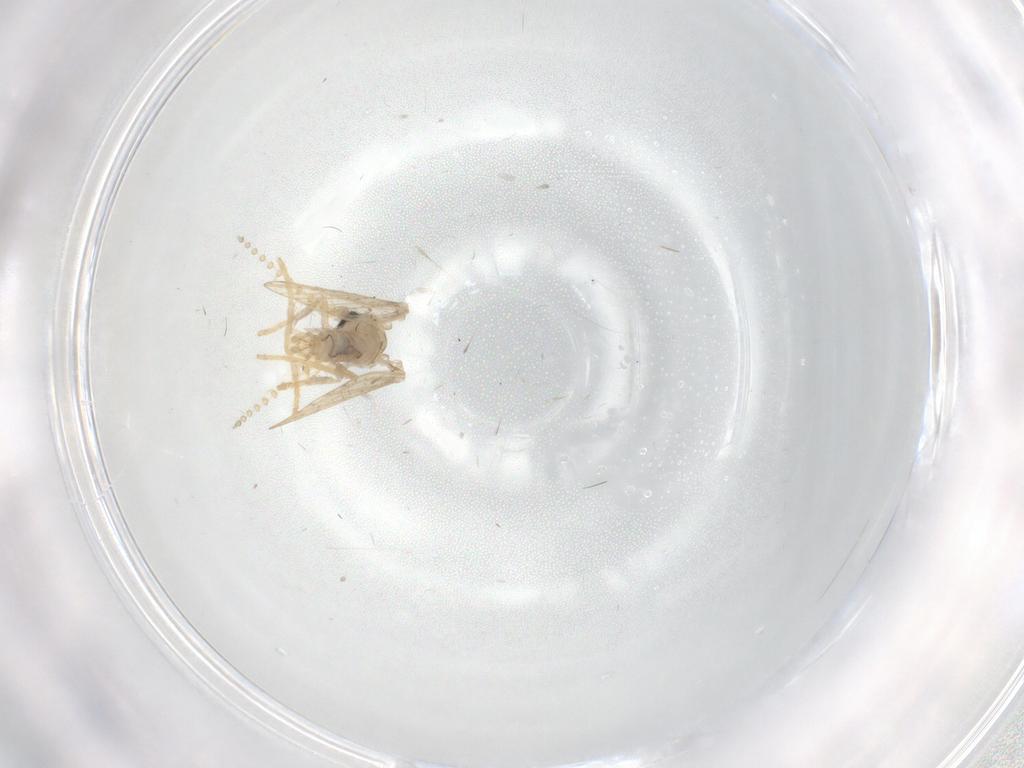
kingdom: Animalia
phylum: Arthropoda
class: Insecta
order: Diptera
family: Psychodidae
